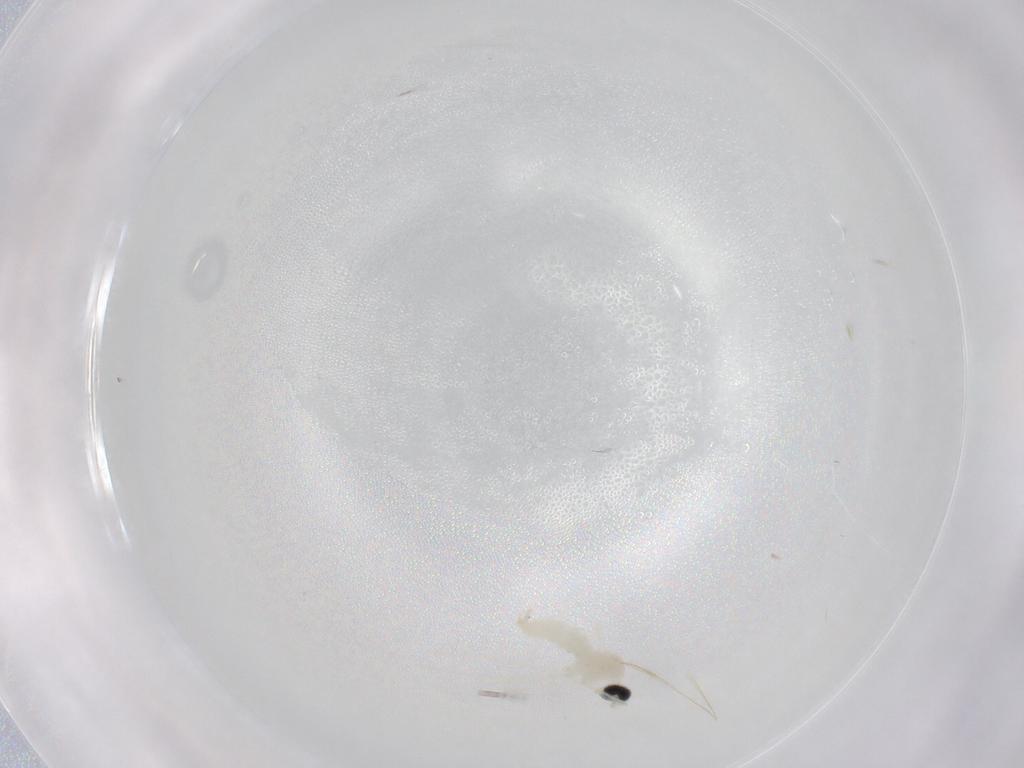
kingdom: Animalia
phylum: Arthropoda
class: Insecta
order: Diptera
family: Cecidomyiidae
